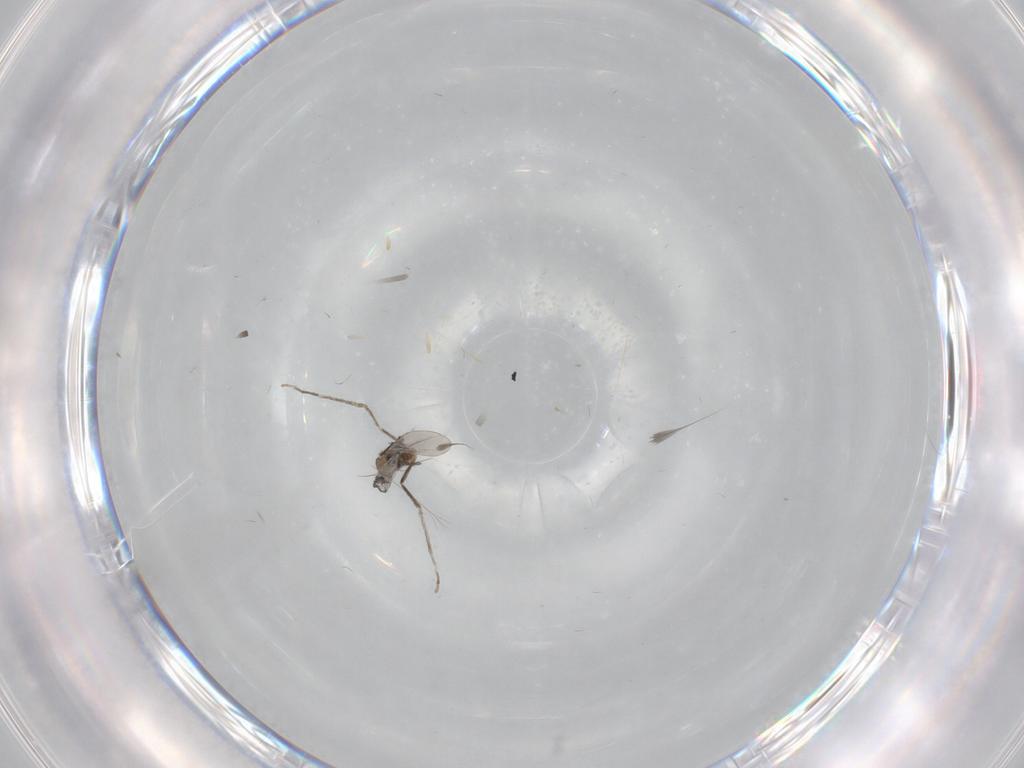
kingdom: Animalia
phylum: Arthropoda
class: Insecta
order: Diptera
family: Cecidomyiidae
